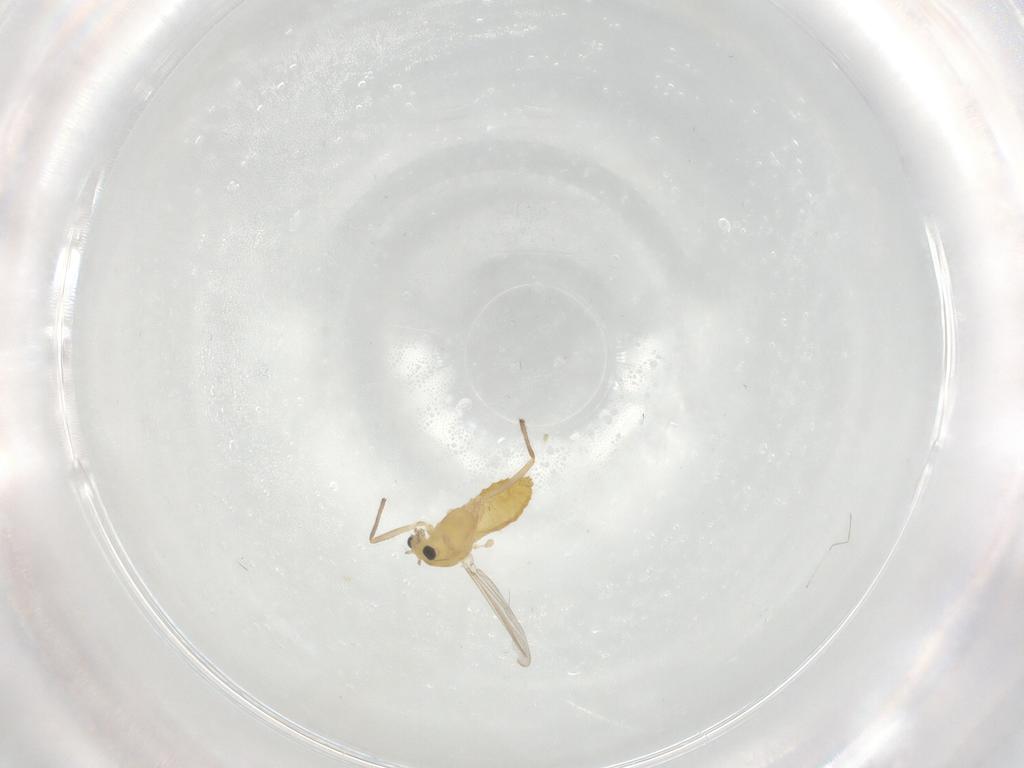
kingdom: Animalia
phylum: Arthropoda
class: Insecta
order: Diptera
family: Chironomidae
